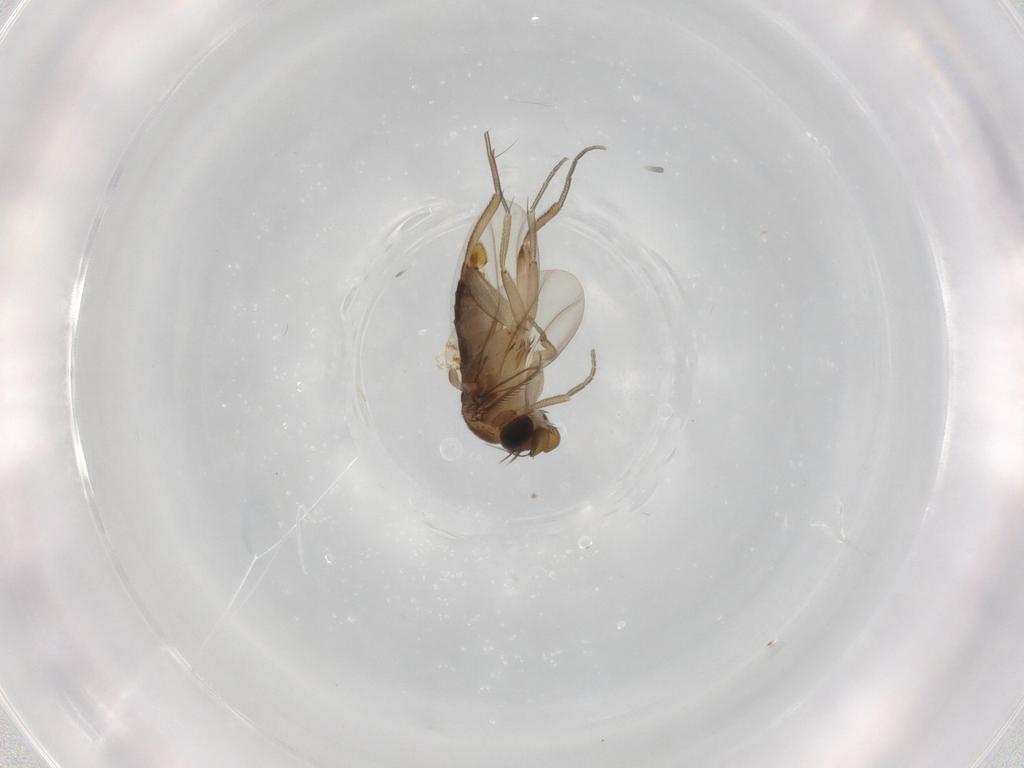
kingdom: Animalia
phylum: Arthropoda
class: Insecta
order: Diptera
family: Phoridae
